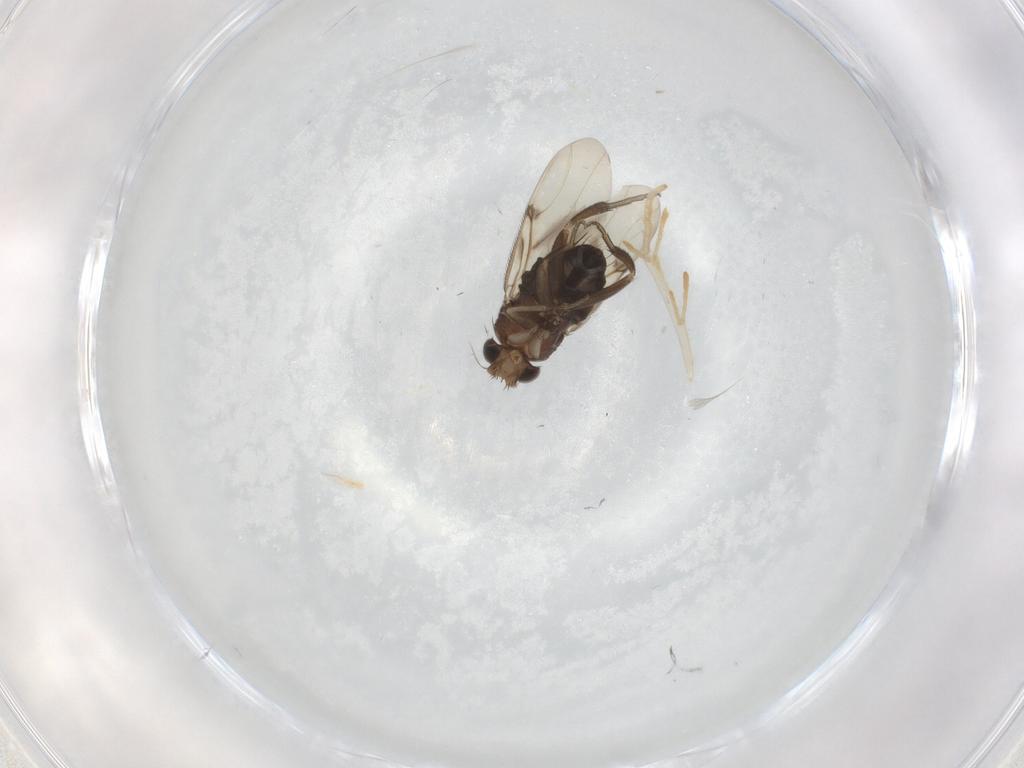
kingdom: Animalia
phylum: Arthropoda
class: Insecta
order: Diptera
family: Phoridae
